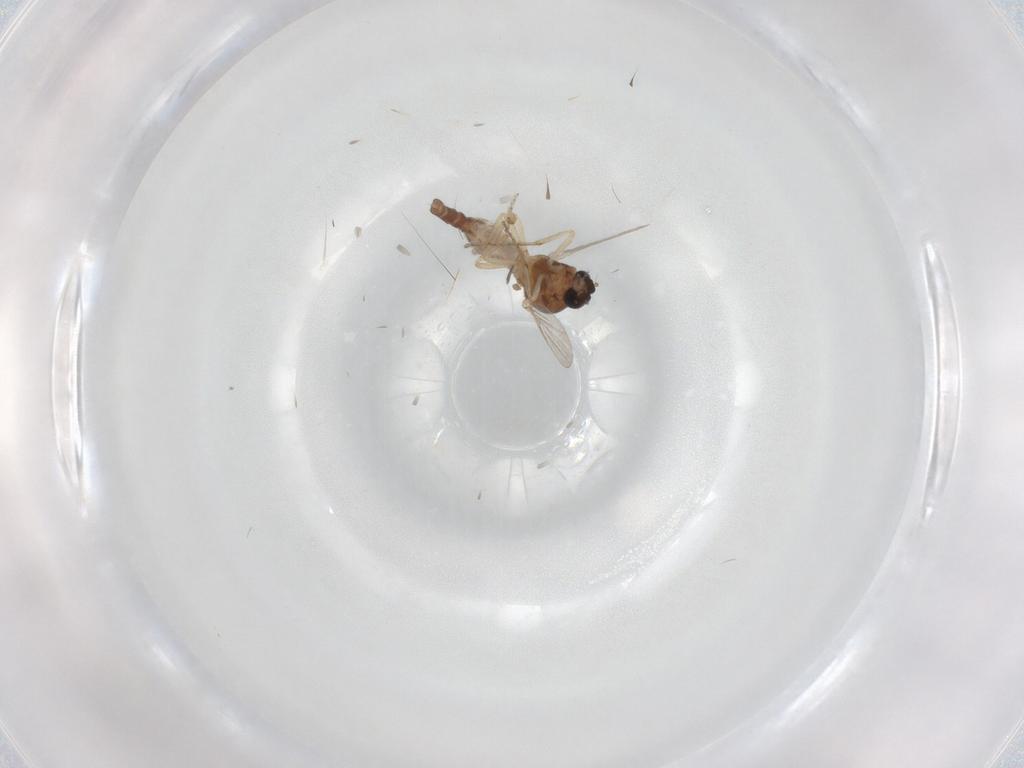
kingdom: Animalia
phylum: Arthropoda
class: Insecta
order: Diptera
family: Ceratopogonidae
